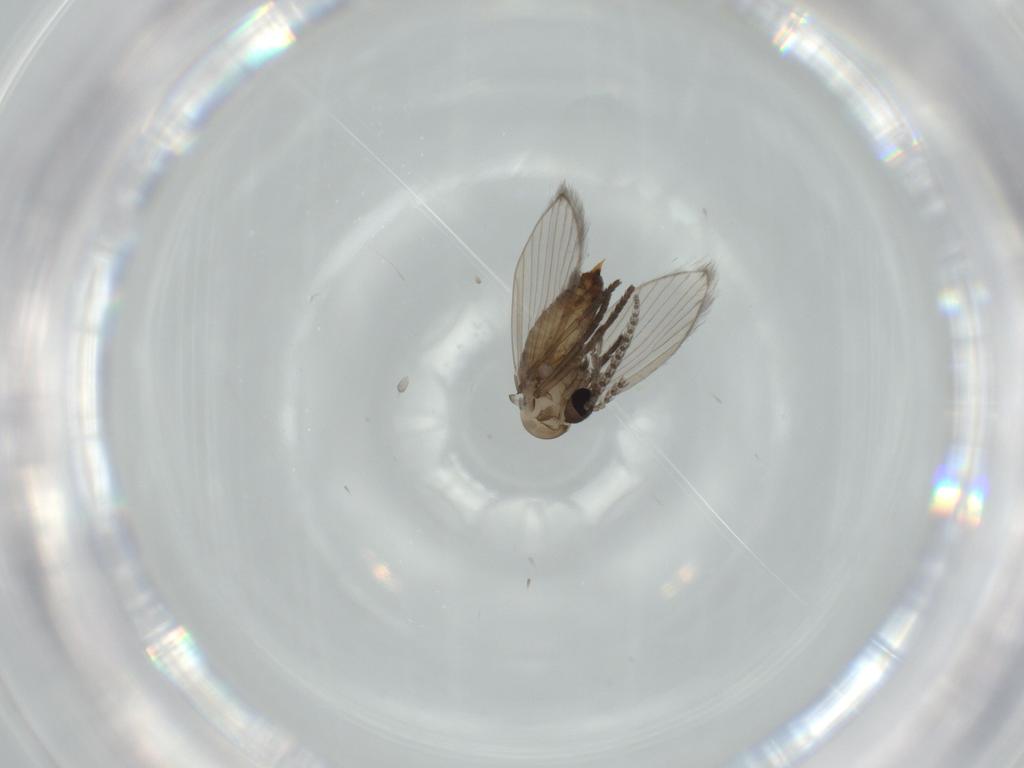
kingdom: Animalia
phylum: Arthropoda
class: Insecta
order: Diptera
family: Psychodidae
